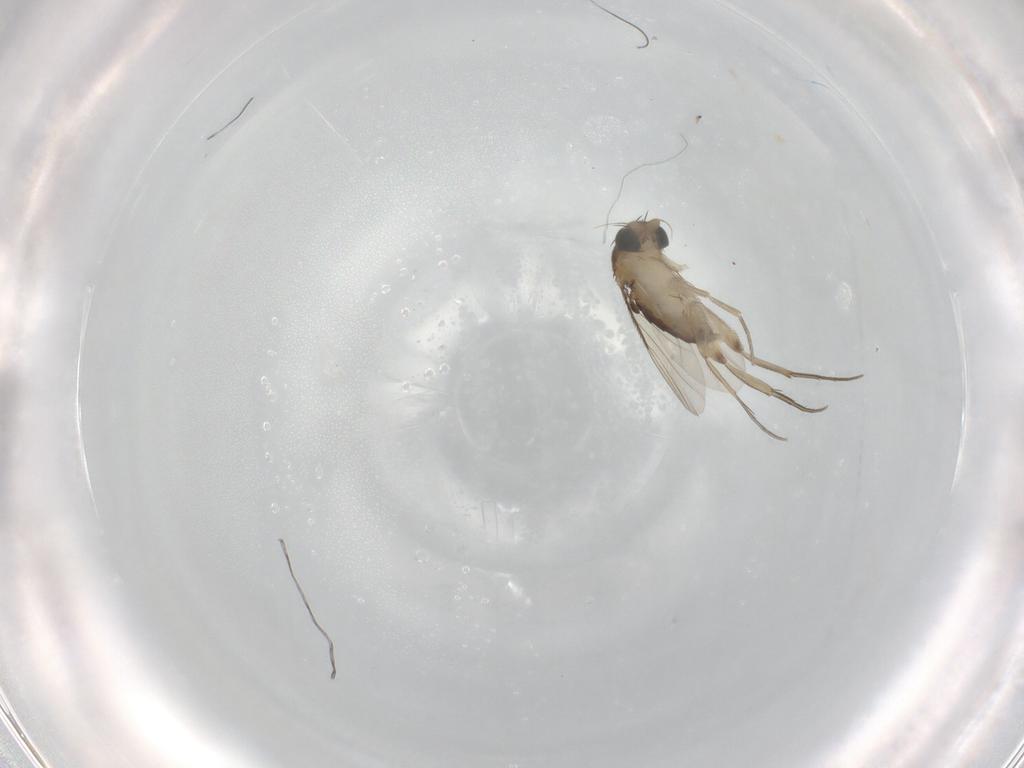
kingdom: Animalia
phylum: Arthropoda
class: Insecta
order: Diptera
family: Phoridae
